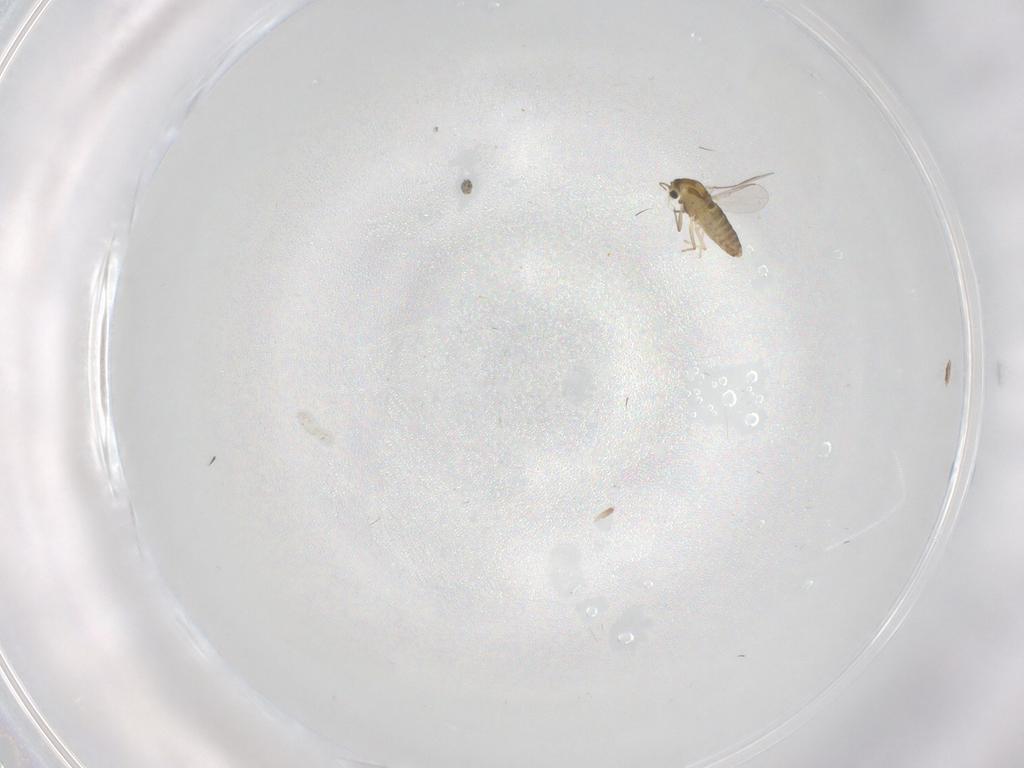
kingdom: Animalia
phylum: Arthropoda
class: Insecta
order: Diptera
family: Chironomidae
